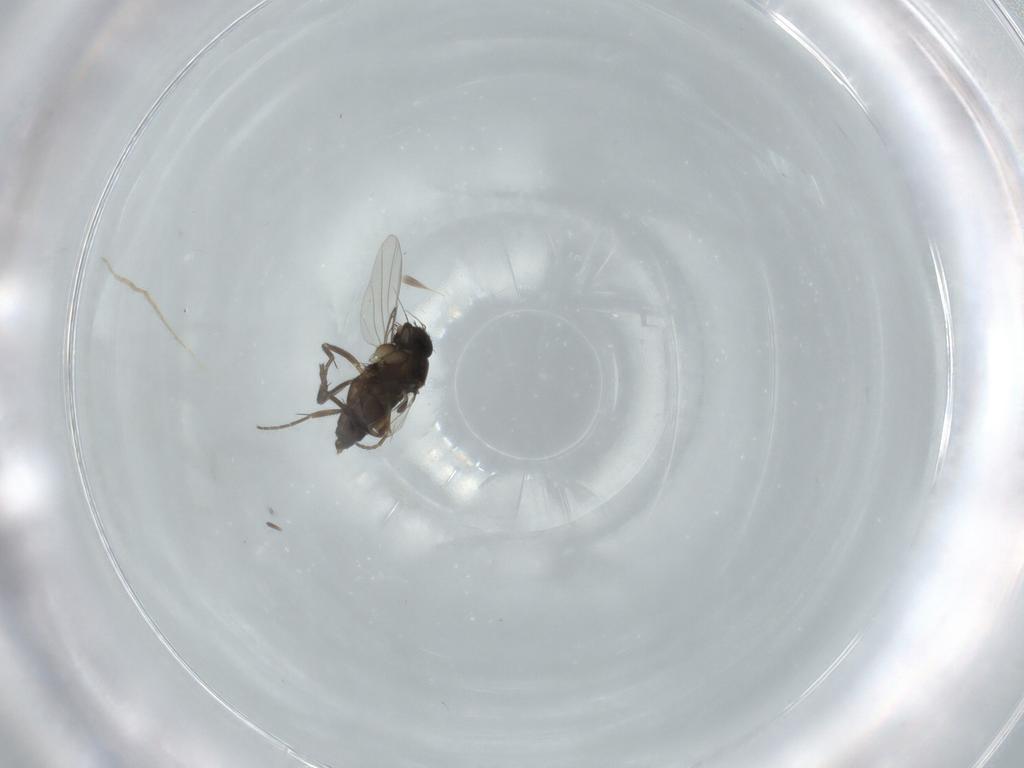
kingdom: Animalia
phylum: Arthropoda
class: Insecta
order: Diptera
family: Phoridae
